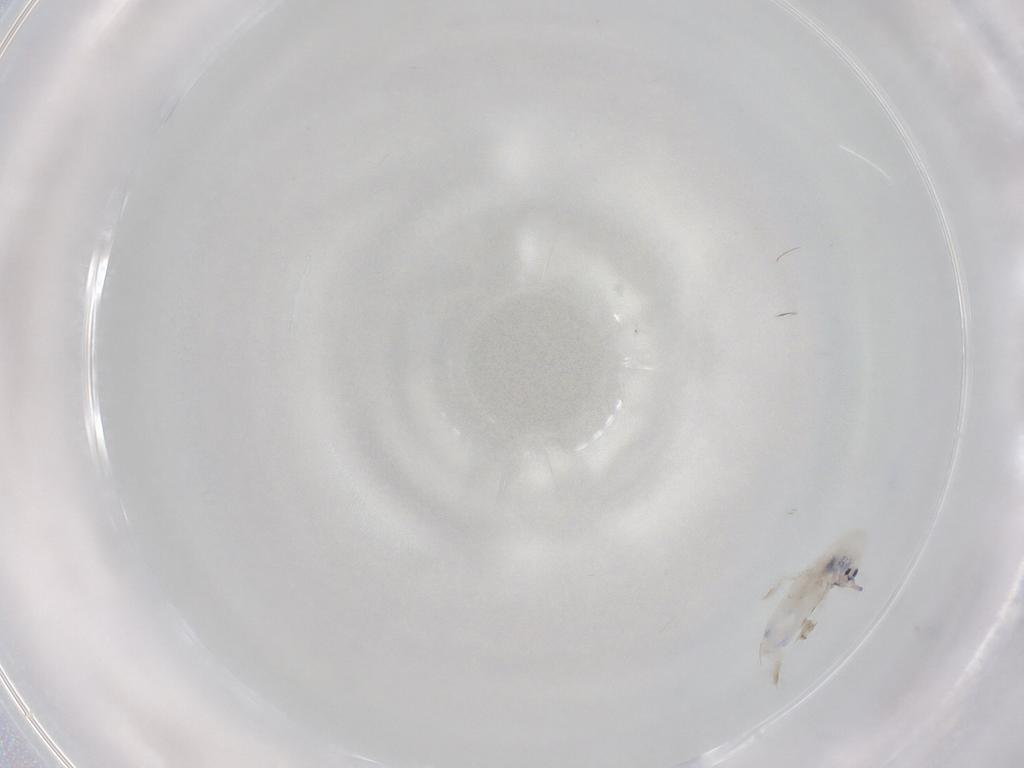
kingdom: Animalia
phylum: Arthropoda
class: Collembola
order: Entomobryomorpha
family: Entomobryidae
